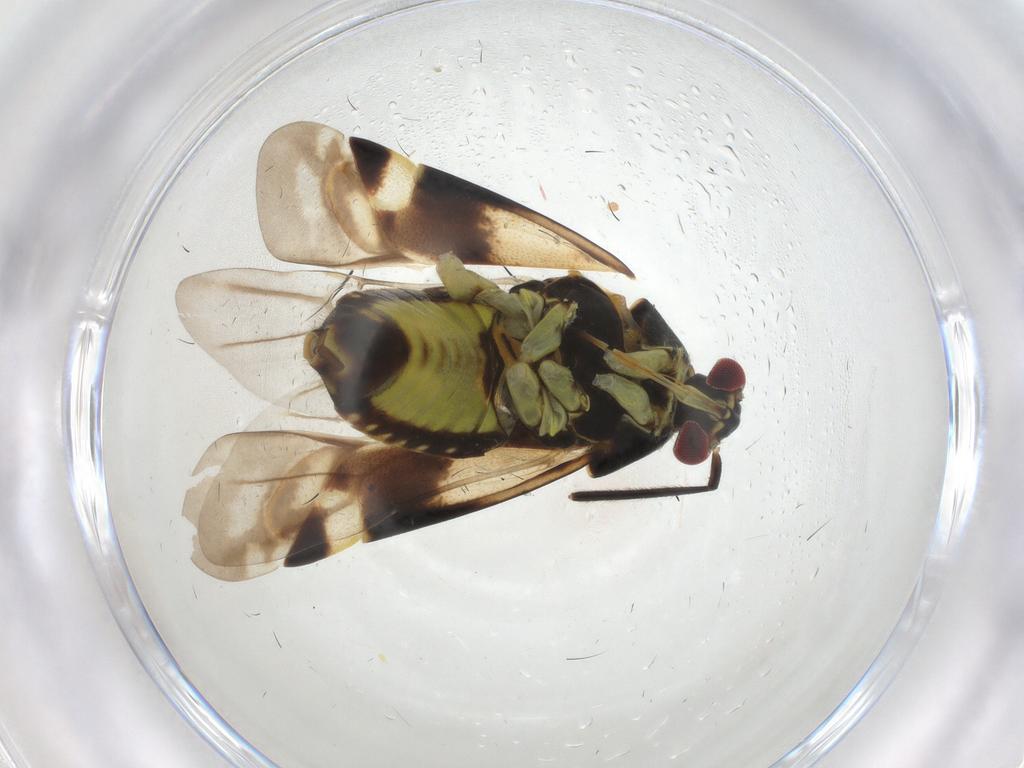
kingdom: Animalia
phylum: Arthropoda
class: Insecta
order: Hemiptera
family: Miridae
